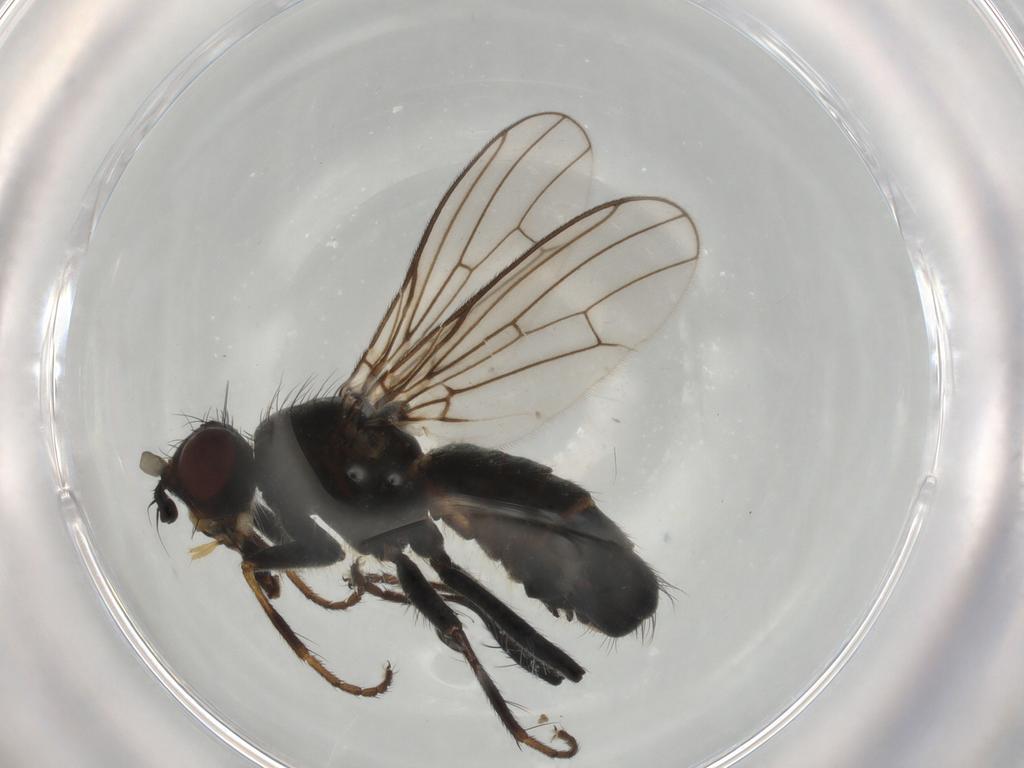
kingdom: Animalia
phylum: Arthropoda
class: Insecta
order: Diptera
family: Scathophagidae
